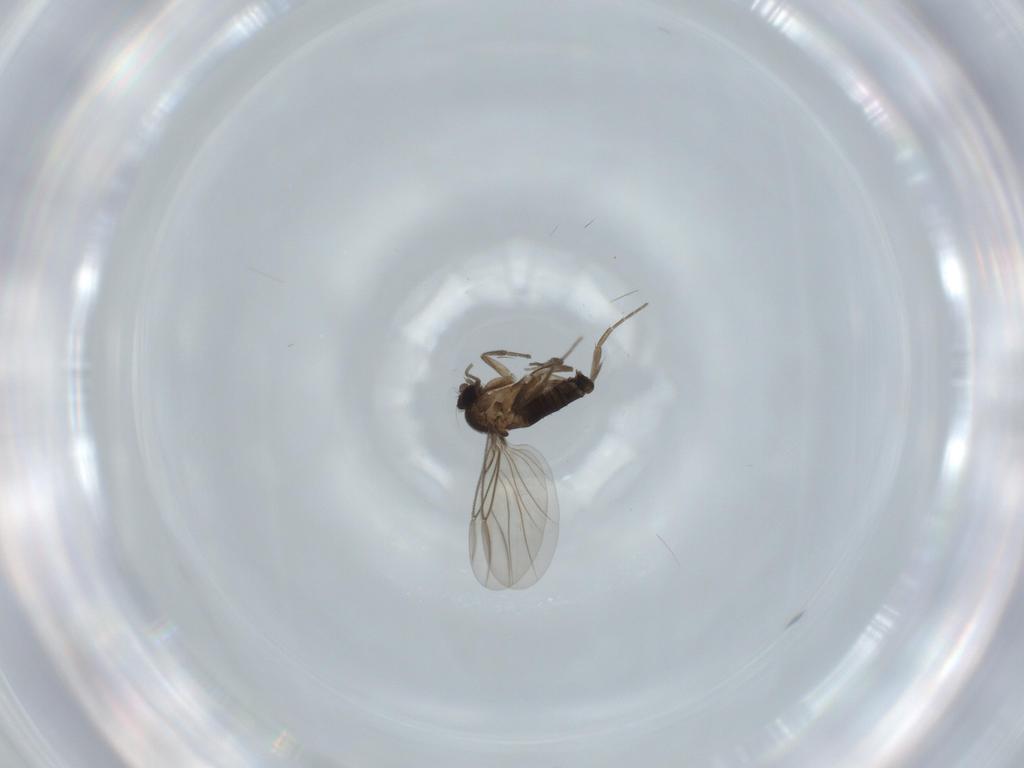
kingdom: Animalia
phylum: Arthropoda
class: Insecta
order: Diptera
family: Phoridae
